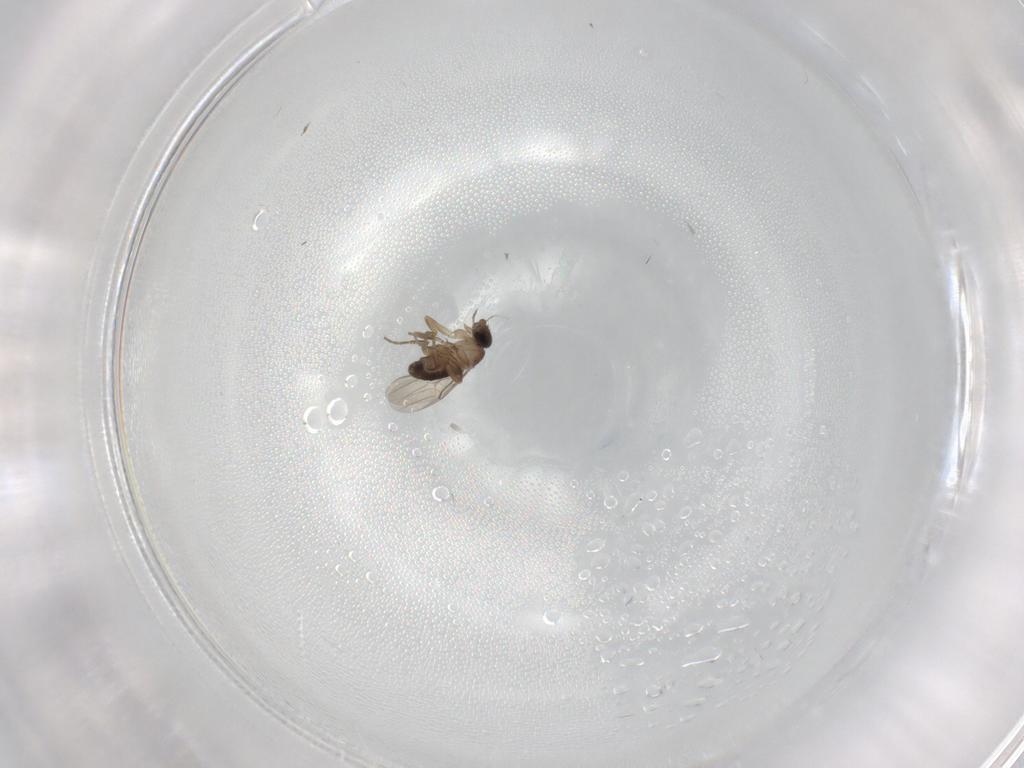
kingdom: Animalia
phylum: Arthropoda
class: Insecta
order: Diptera
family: Phoridae
